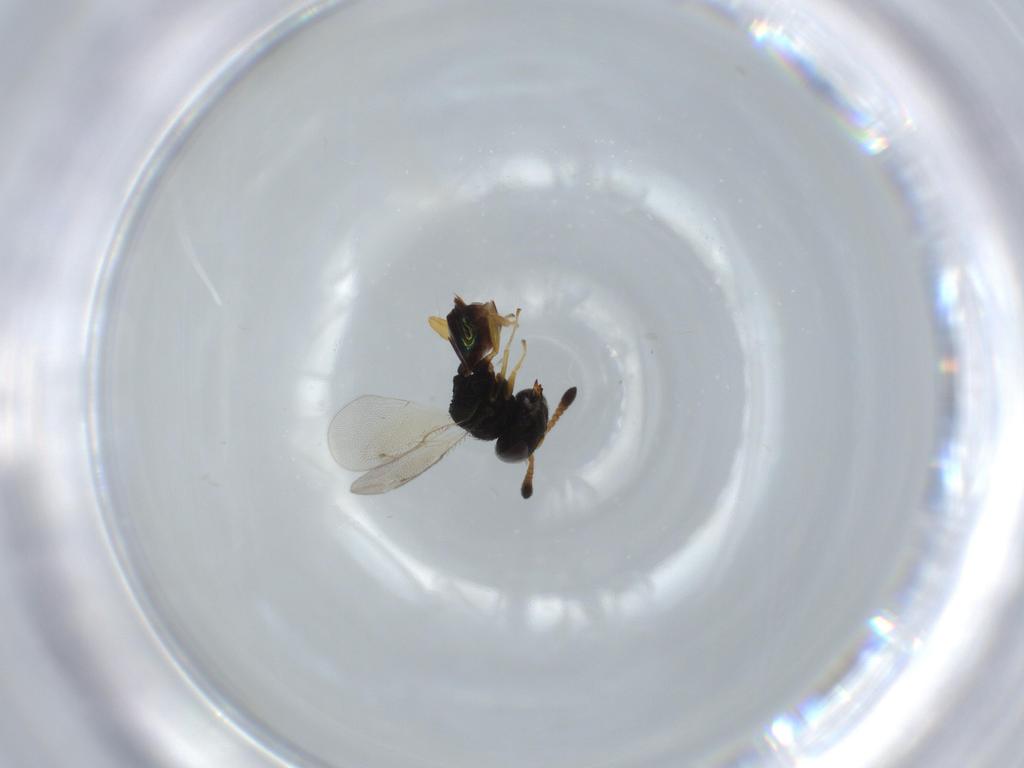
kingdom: Animalia
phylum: Arthropoda
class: Insecta
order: Hymenoptera
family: Pteromalidae
